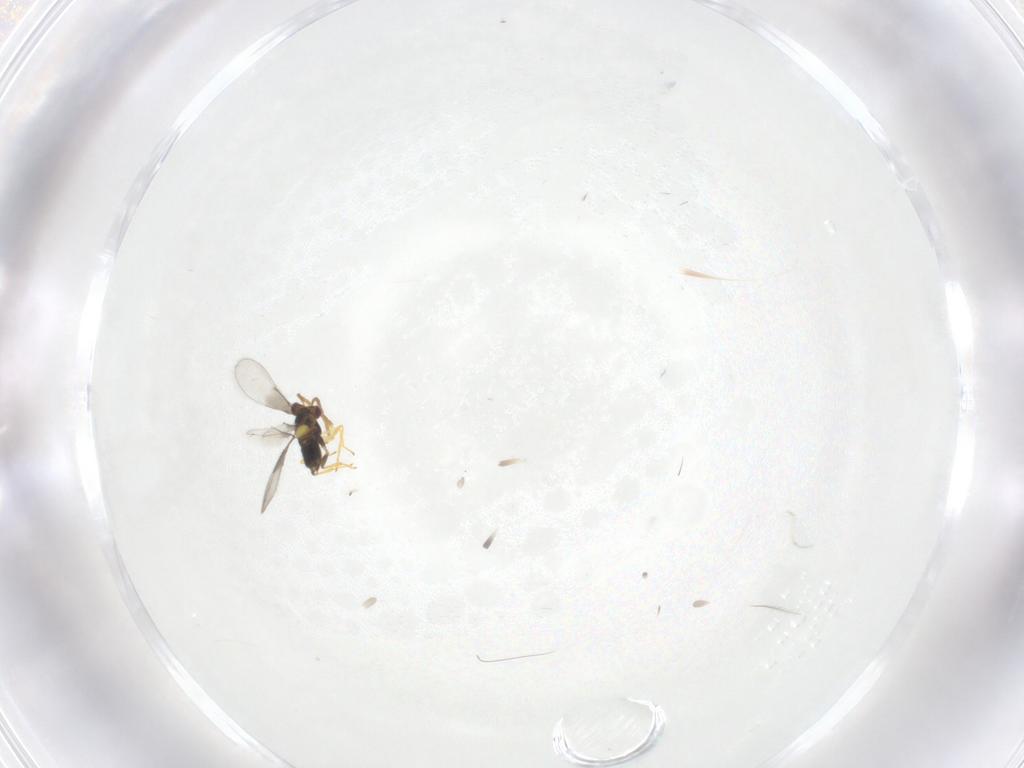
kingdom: Animalia
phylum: Arthropoda
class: Insecta
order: Hymenoptera
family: Aphelinidae
